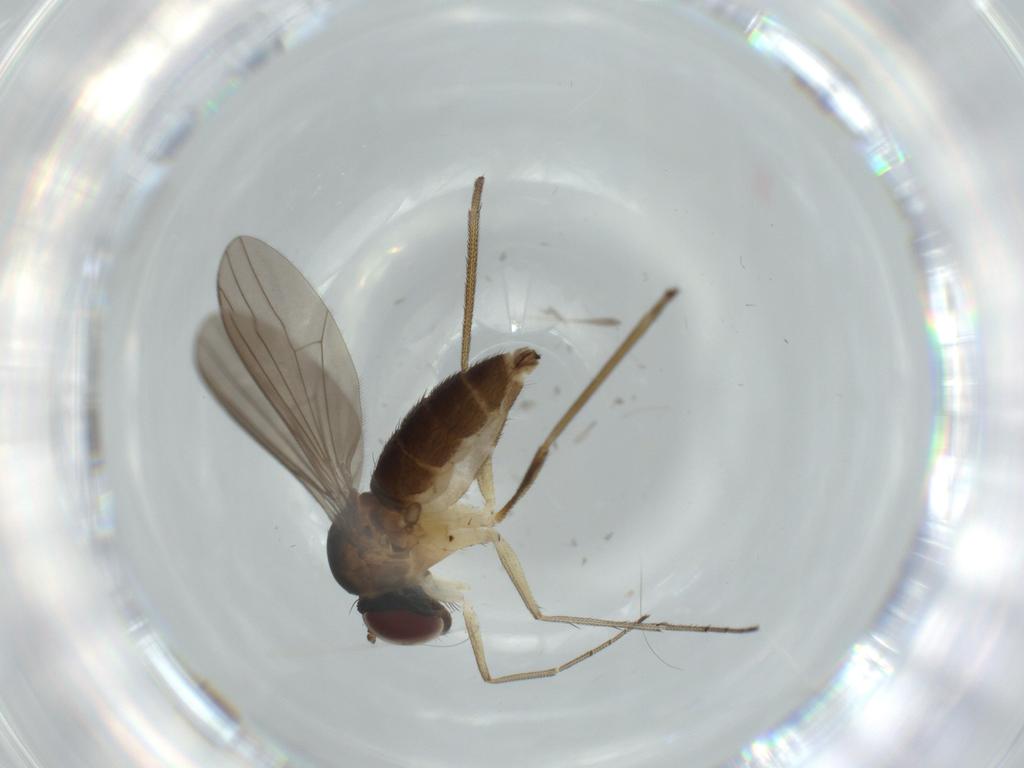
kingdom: Animalia
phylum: Arthropoda
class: Insecta
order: Diptera
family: Dolichopodidae
